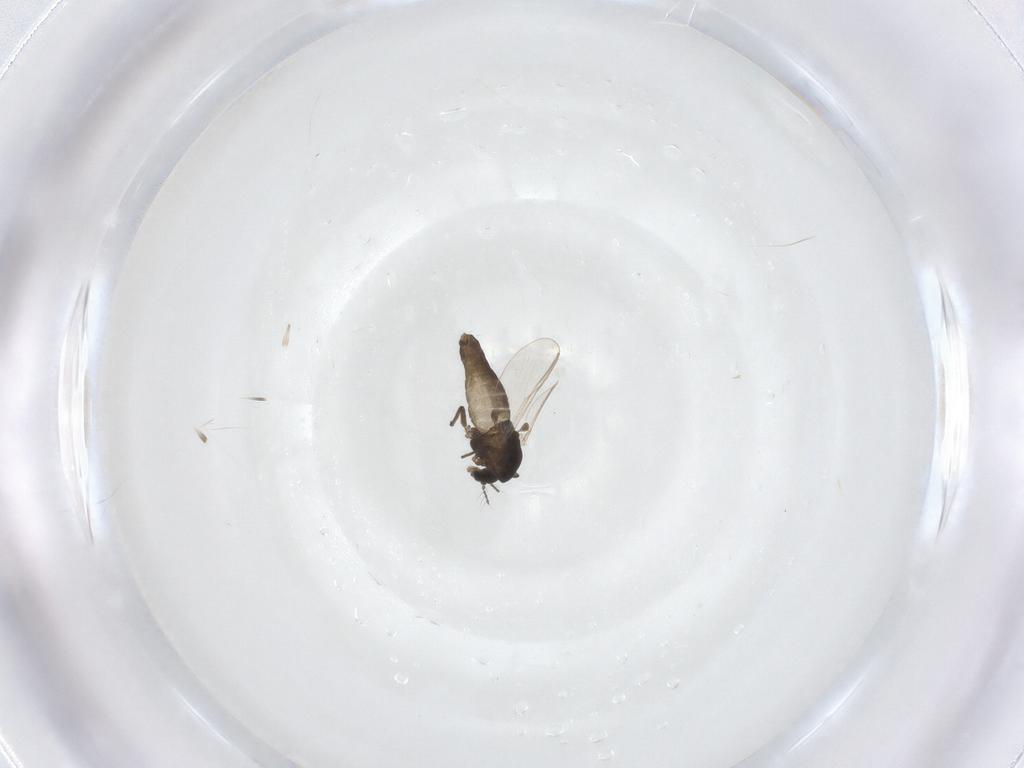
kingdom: Animalia
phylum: Arthropoda
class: Insecta
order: Diptera
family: Chironomidae
